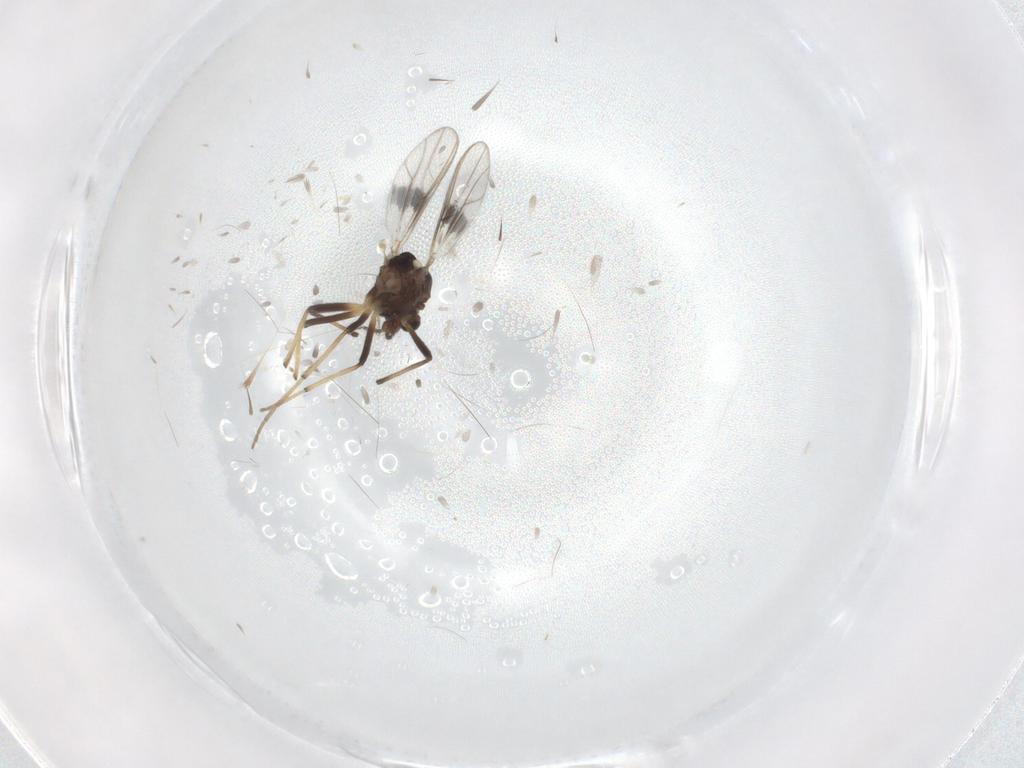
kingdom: Animalia
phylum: Arthropoda
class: Insecta
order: Diptera
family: Chironomidae
